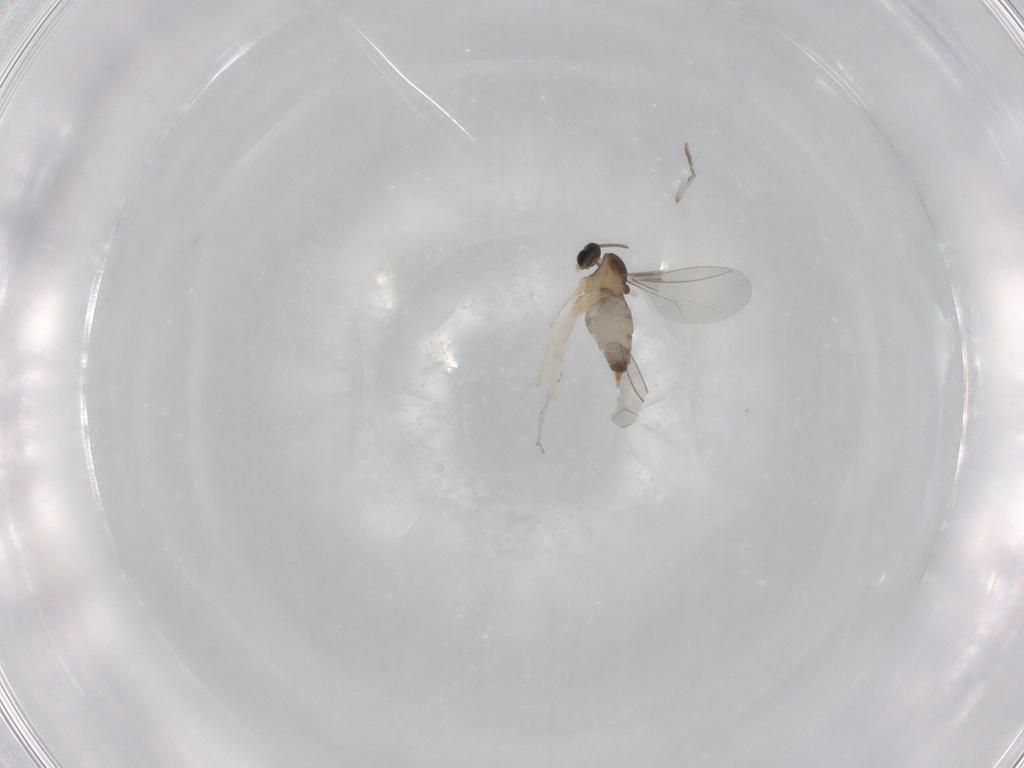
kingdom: Animalia
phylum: Arthropoda
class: Insecta
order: Diptera
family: Cecidomyiidae
